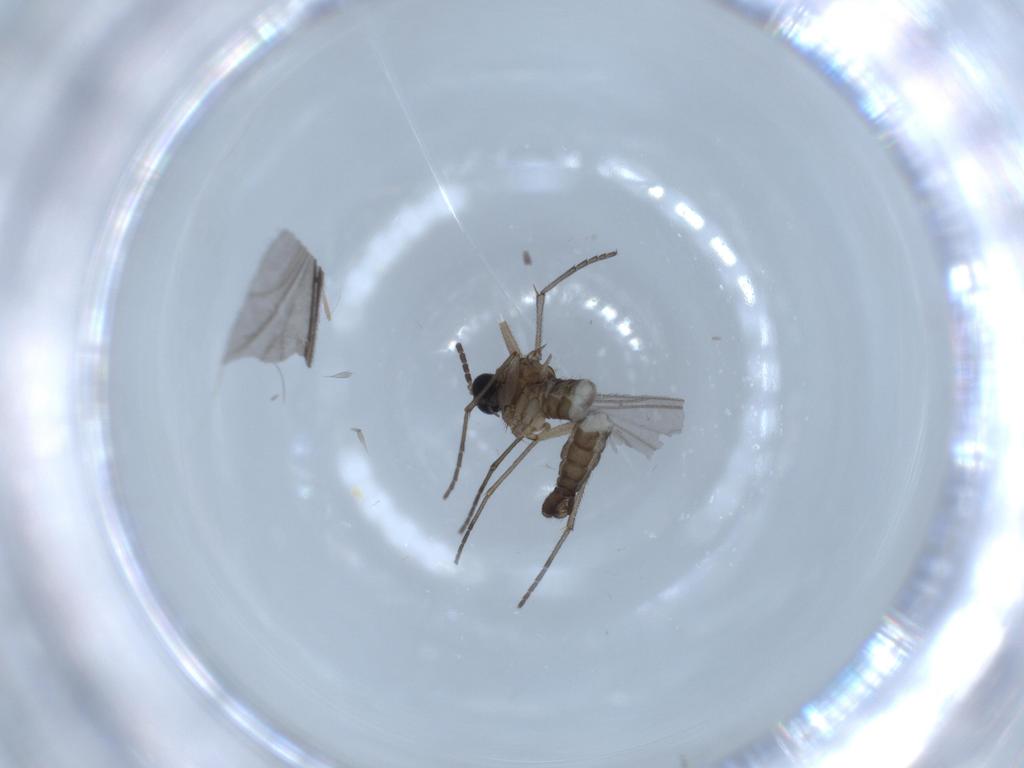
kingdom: Animalia
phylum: Arthropoda
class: Insecta
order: Diptera
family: Sciaridae
